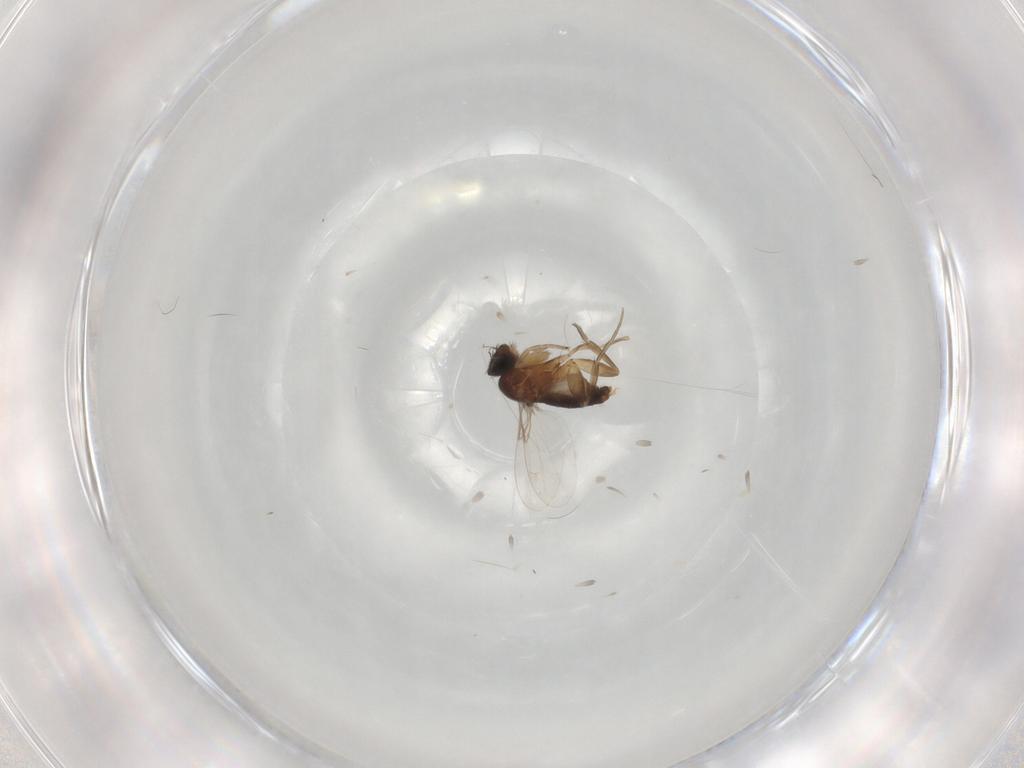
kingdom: Animalia
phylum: Arthropoda
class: Insecta
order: Diptera
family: Phoridae
